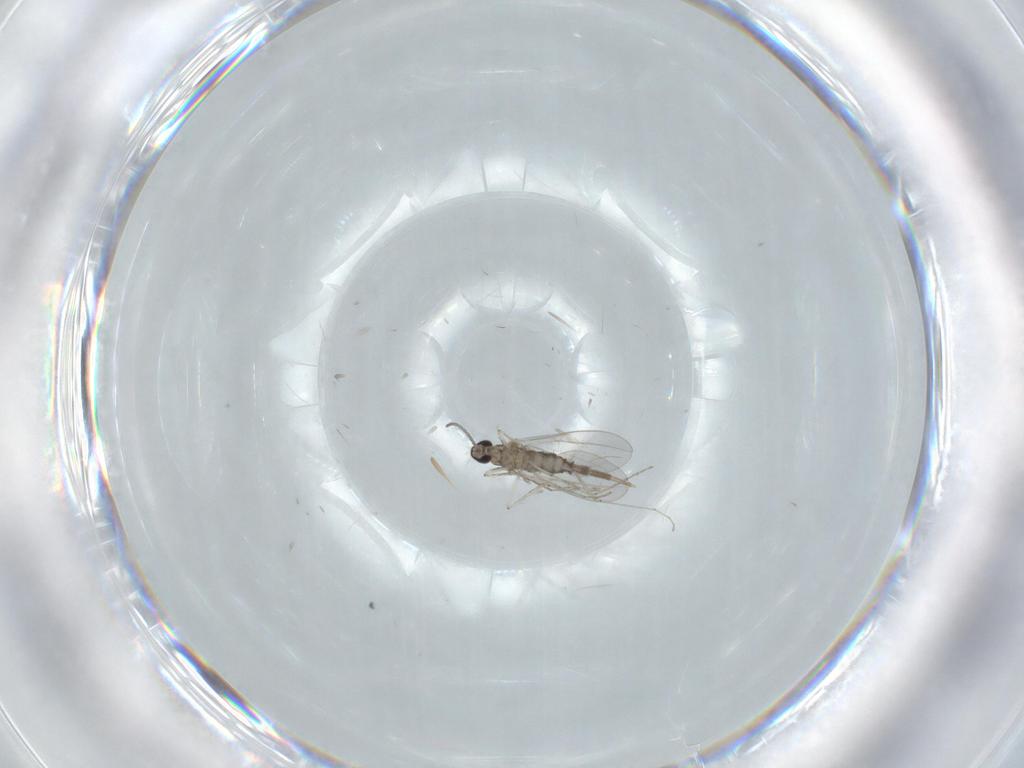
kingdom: Animalia
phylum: Arthropoda
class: Insecta
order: Diptera
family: Cecidomyiidae
